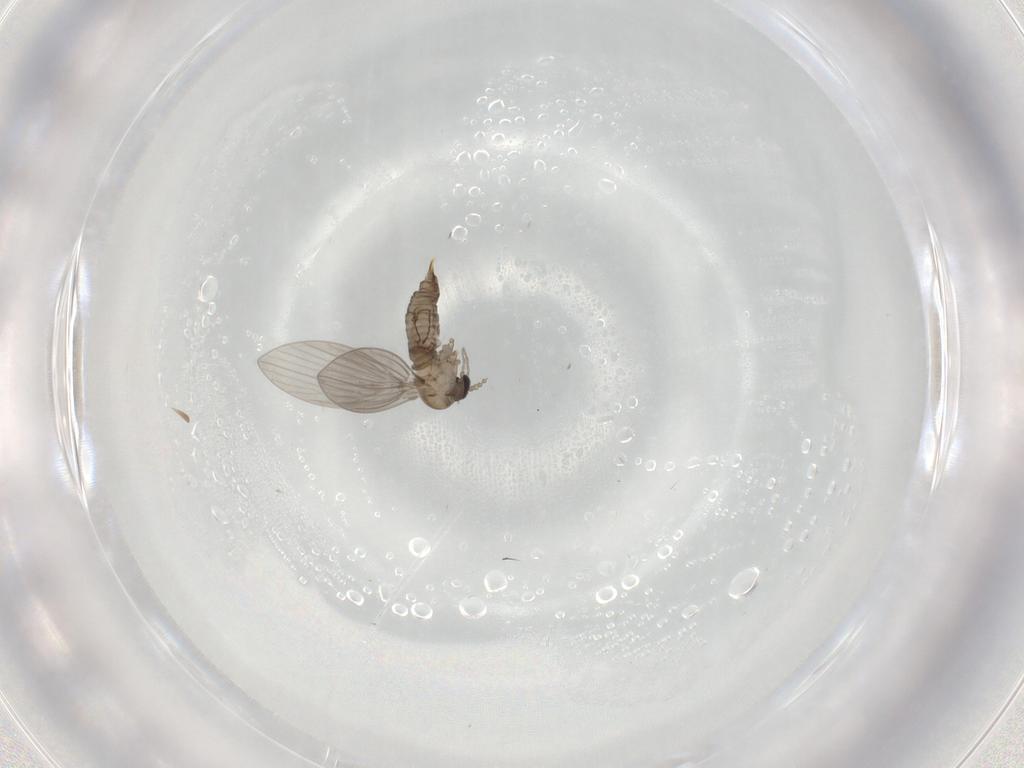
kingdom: Animalia
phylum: Arthropoda
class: Insecta
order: Diptera
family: Psychodidae
